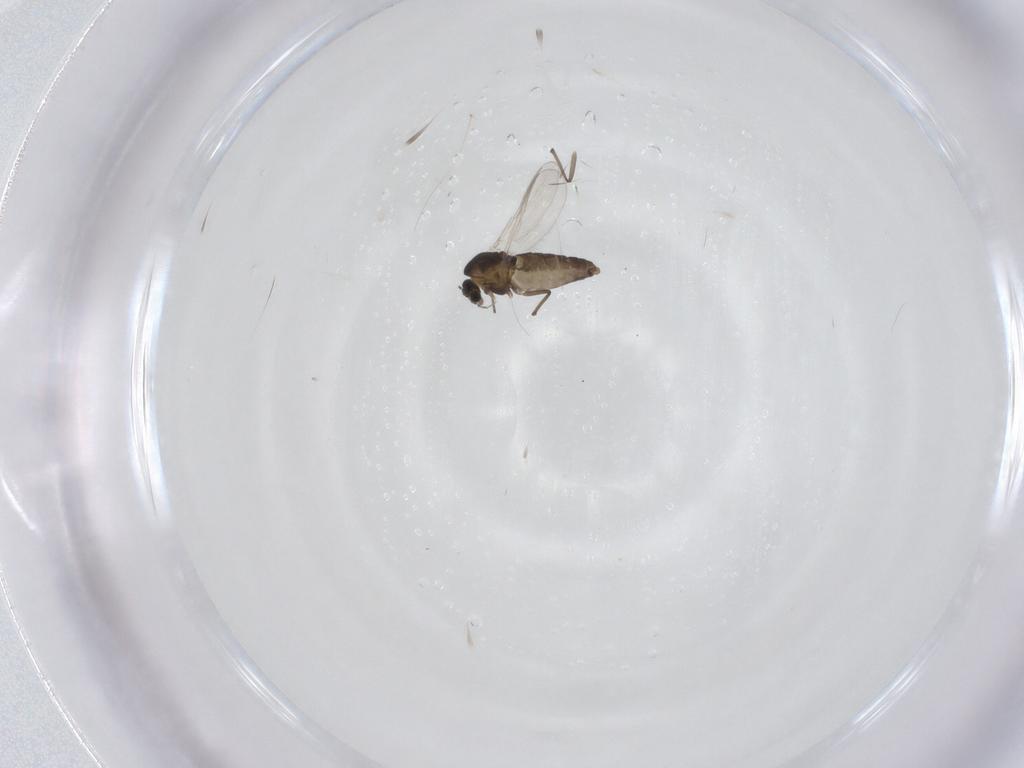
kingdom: Animalia
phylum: Arthropoda
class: Insecta
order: Diptera
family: Chironomidae
